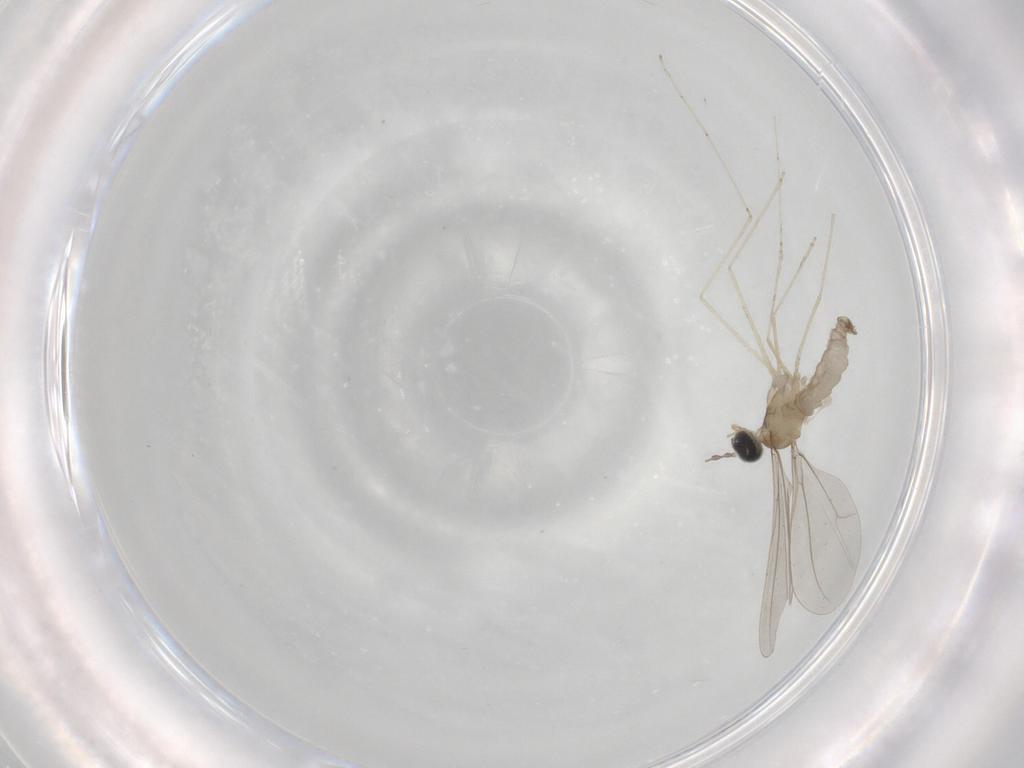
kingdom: Animalia
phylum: Arthropoda
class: Insecta
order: Diptera
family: Cecidomyiidae
